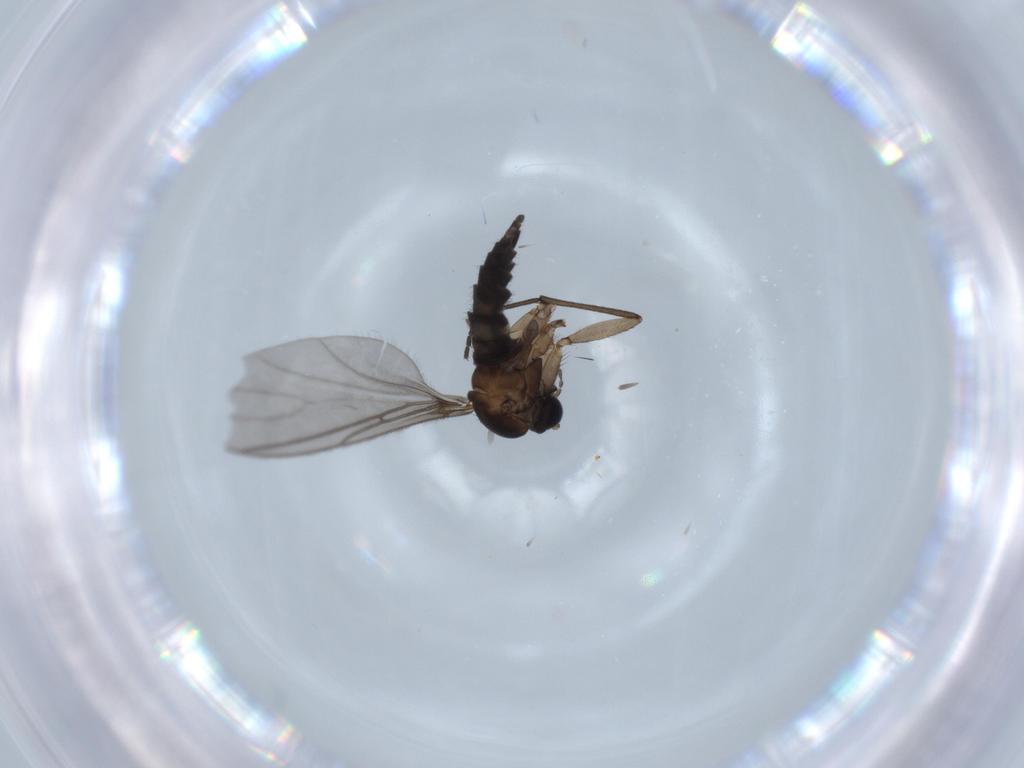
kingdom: Animalia
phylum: Arthropoda
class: Insecta
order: Diptera
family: Sciaridae
